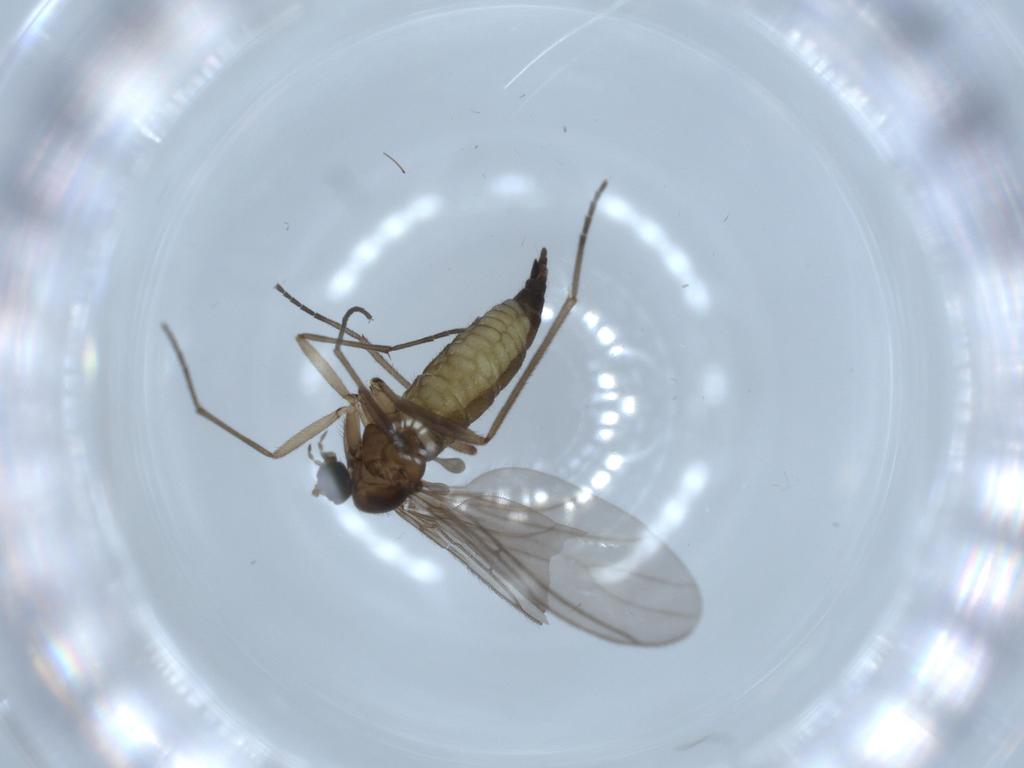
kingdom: Animalia
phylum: Arthropoda
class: Insecta
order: Diptera
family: Sciaridae
